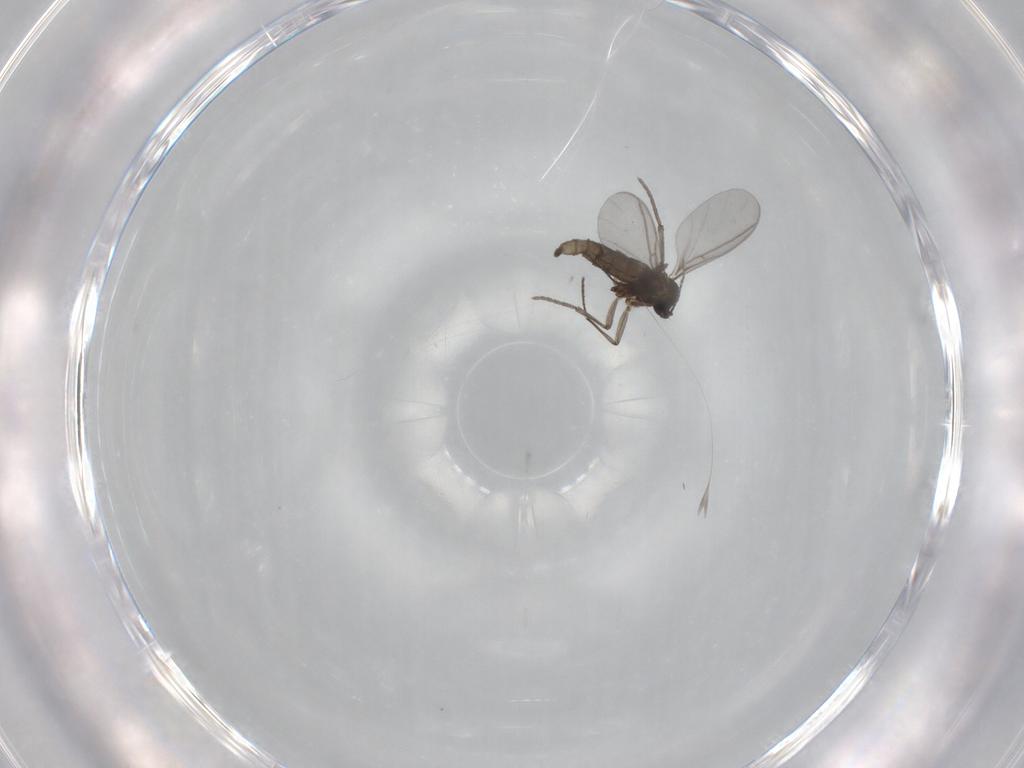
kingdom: Animalia
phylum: Arthropoda
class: Insecta
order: Diptera
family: Sciaridae
